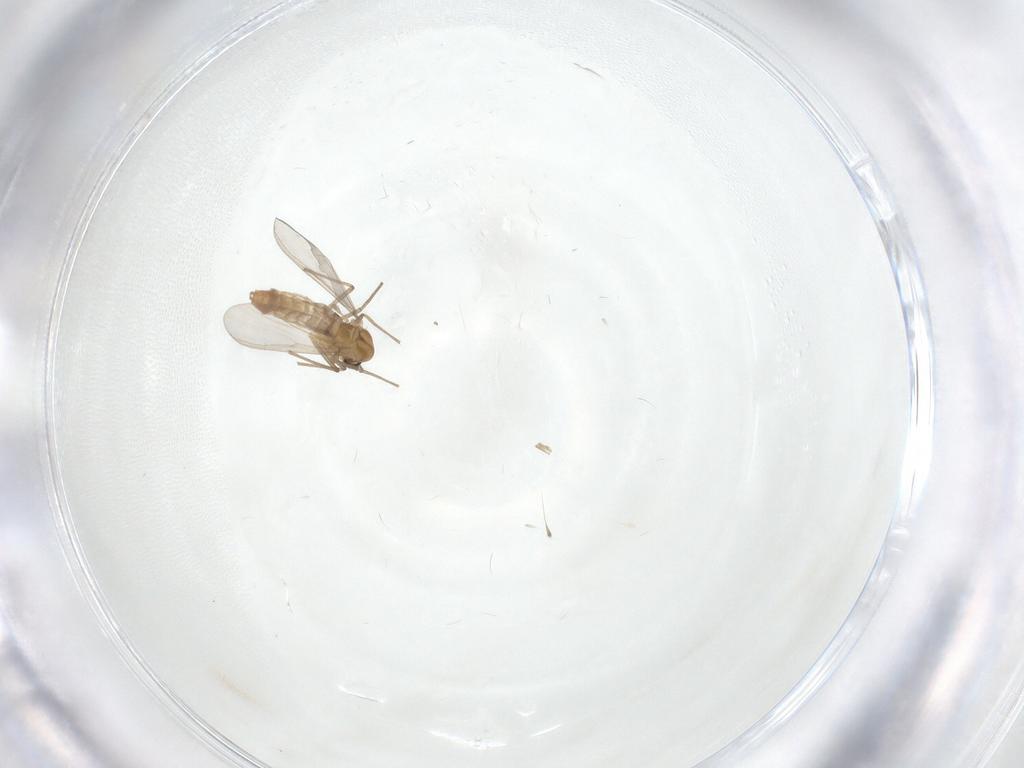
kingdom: Animalia
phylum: Arthropoda
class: Insecta
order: Diptera
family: Chironomidae
